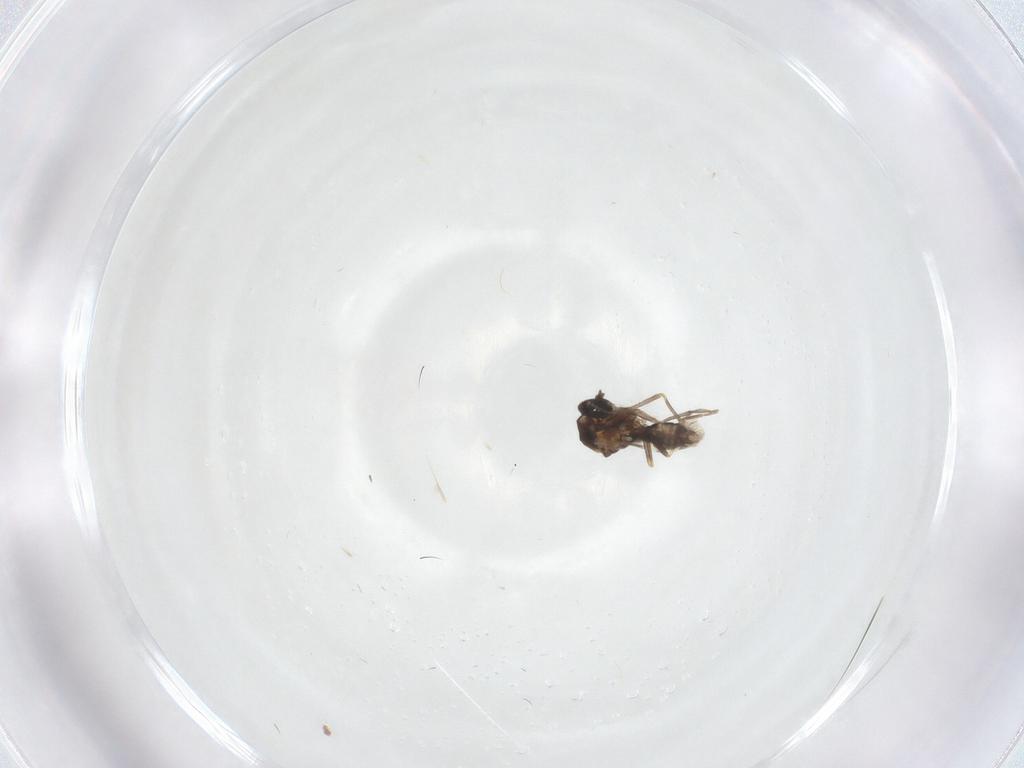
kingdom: Animalia
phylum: Arthropoda
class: Insecta
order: Diptera
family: Ceratopogonidae
